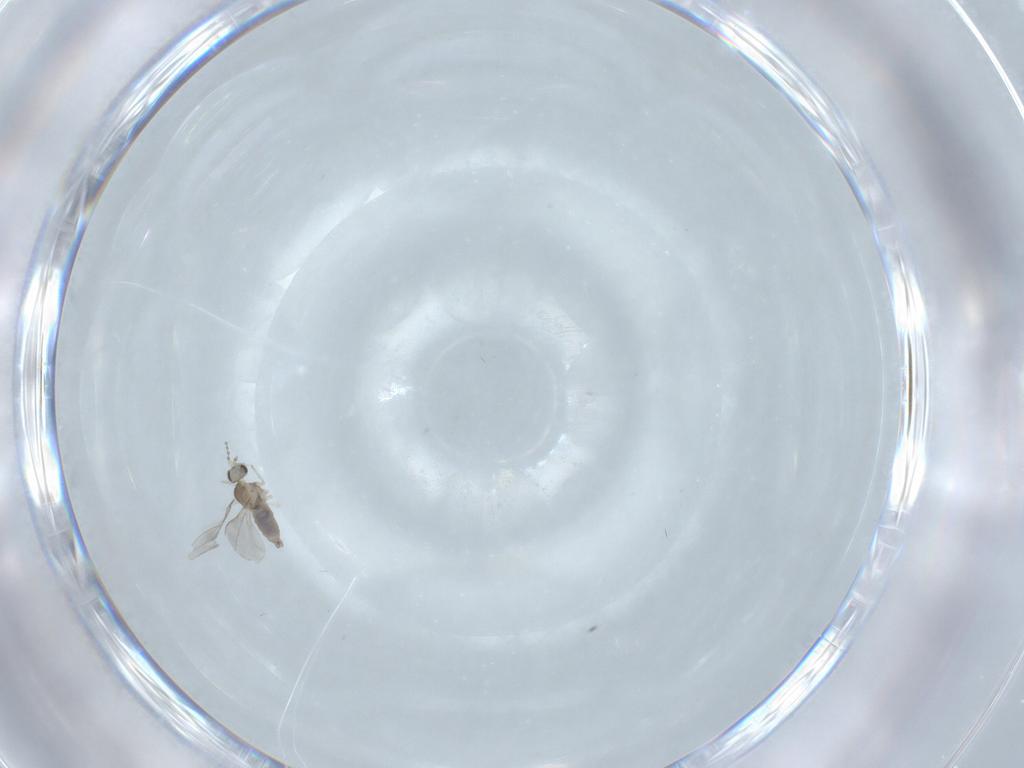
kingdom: Animalia
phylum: Arthropoda
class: Insecta
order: Diptera
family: Cecidomyiidae
